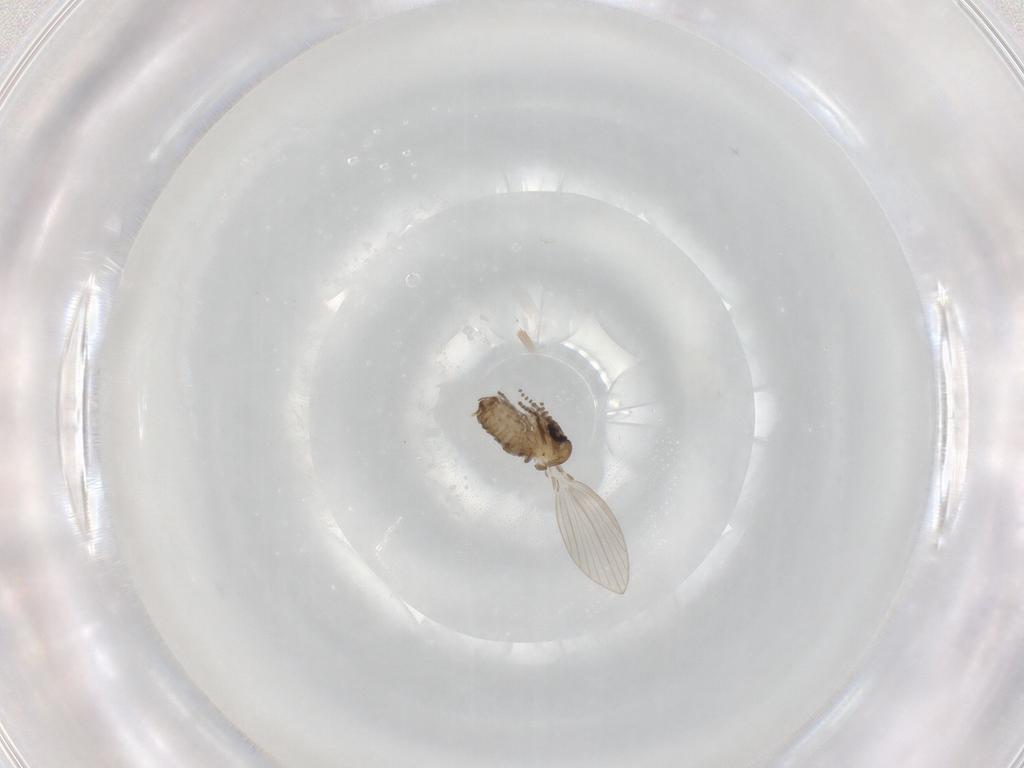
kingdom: Animalia
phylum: Arthropoda
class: Insecta
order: Diptera
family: Psychodidae
